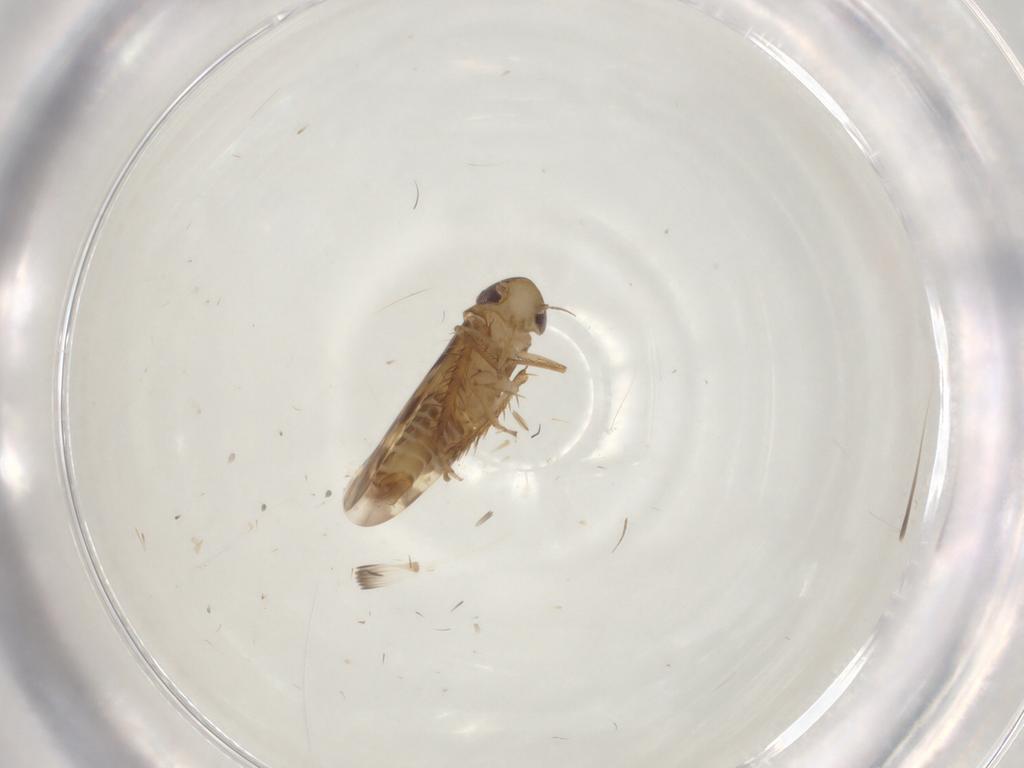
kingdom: Animalia
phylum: Arthropoda
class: Insecta
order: Hemiptera
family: Cicadellidae
